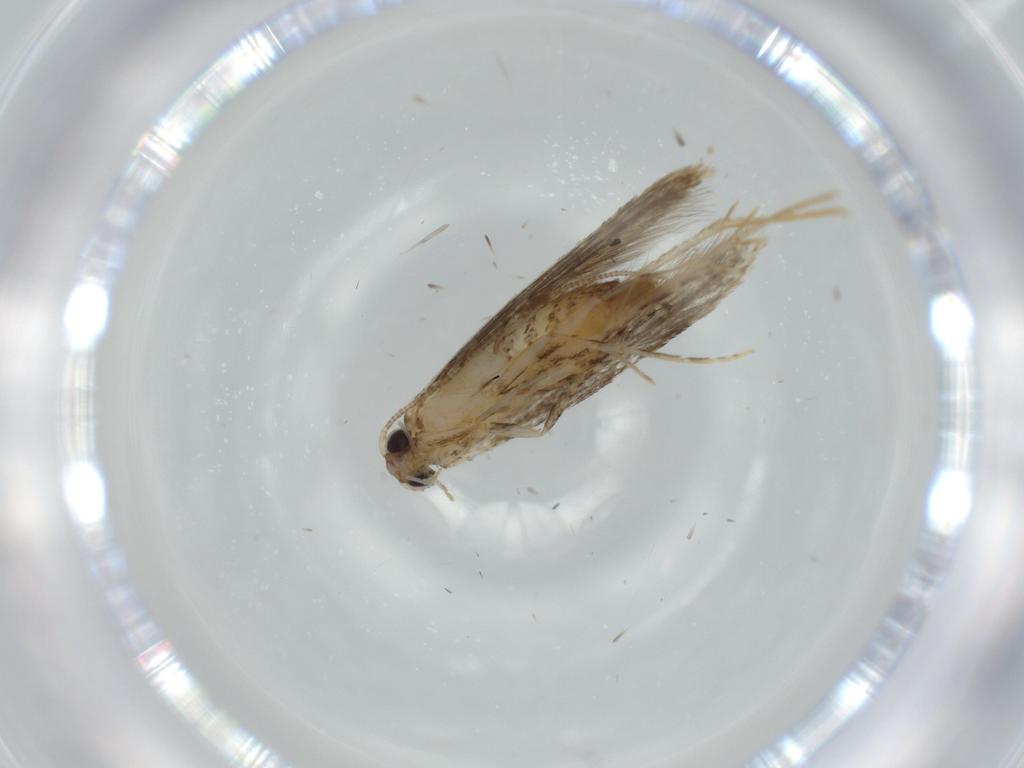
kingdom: Animalia
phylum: Arthropoda
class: Insecta
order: Lepidoptera
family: Tineidae
